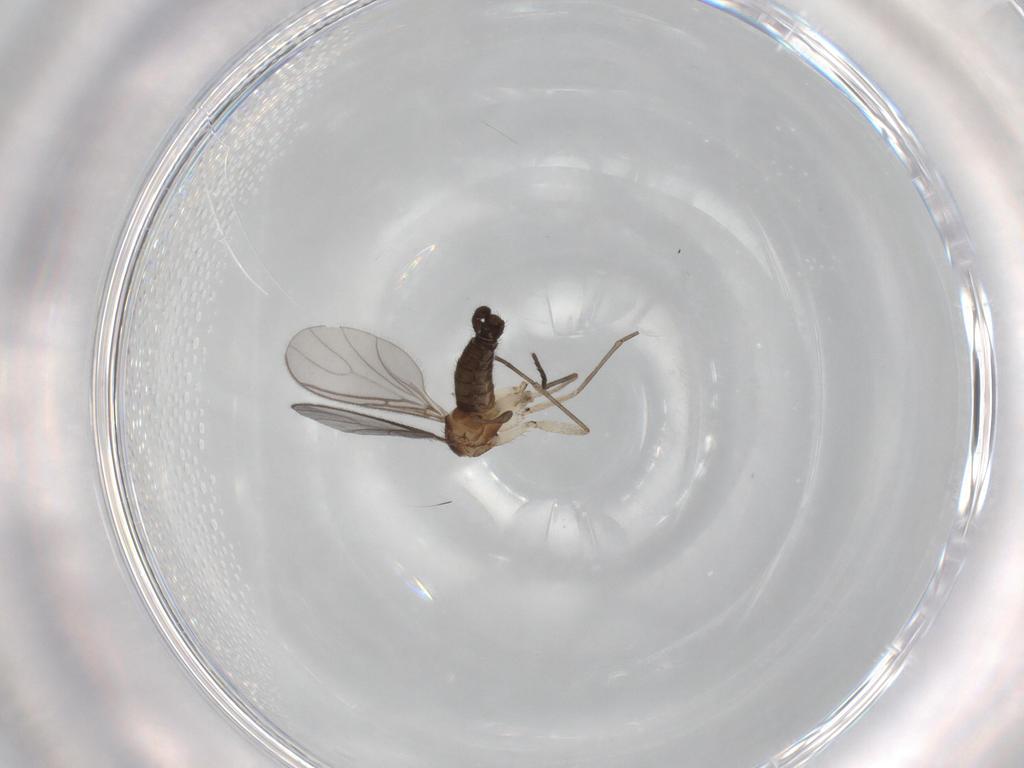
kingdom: Animalia
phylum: Arthropoda
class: Insecta
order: Diptera
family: Sciaridae
